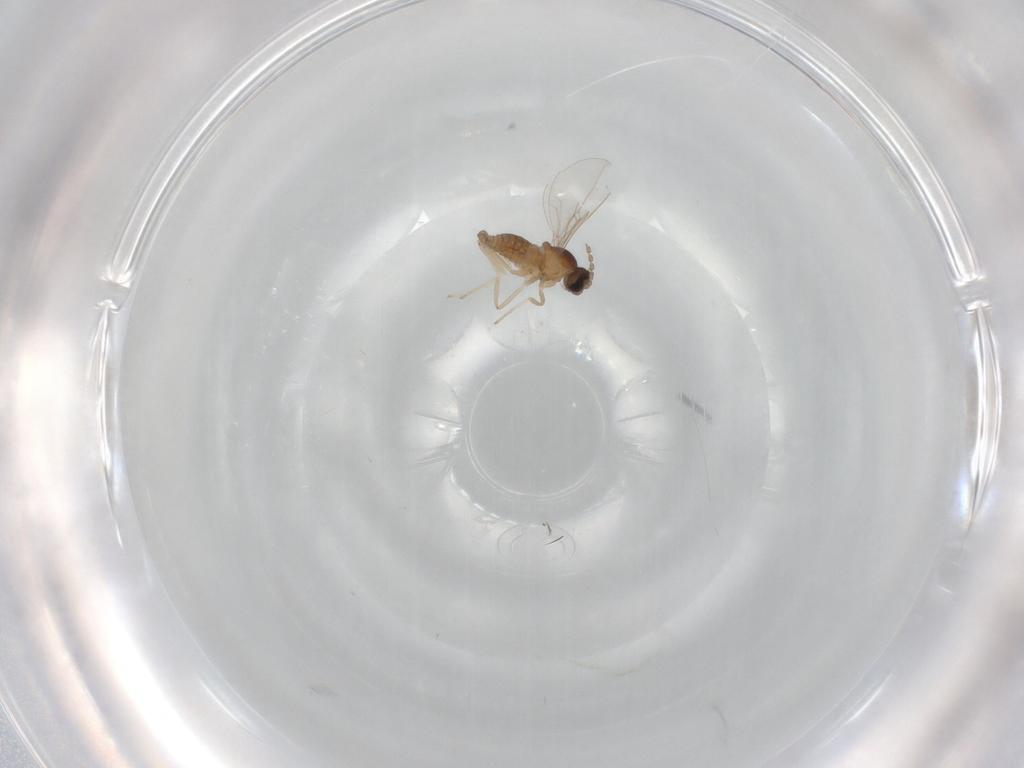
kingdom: Animalia
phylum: Arthropoda
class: Insecta
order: Diptera
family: Cecidomyiidae
